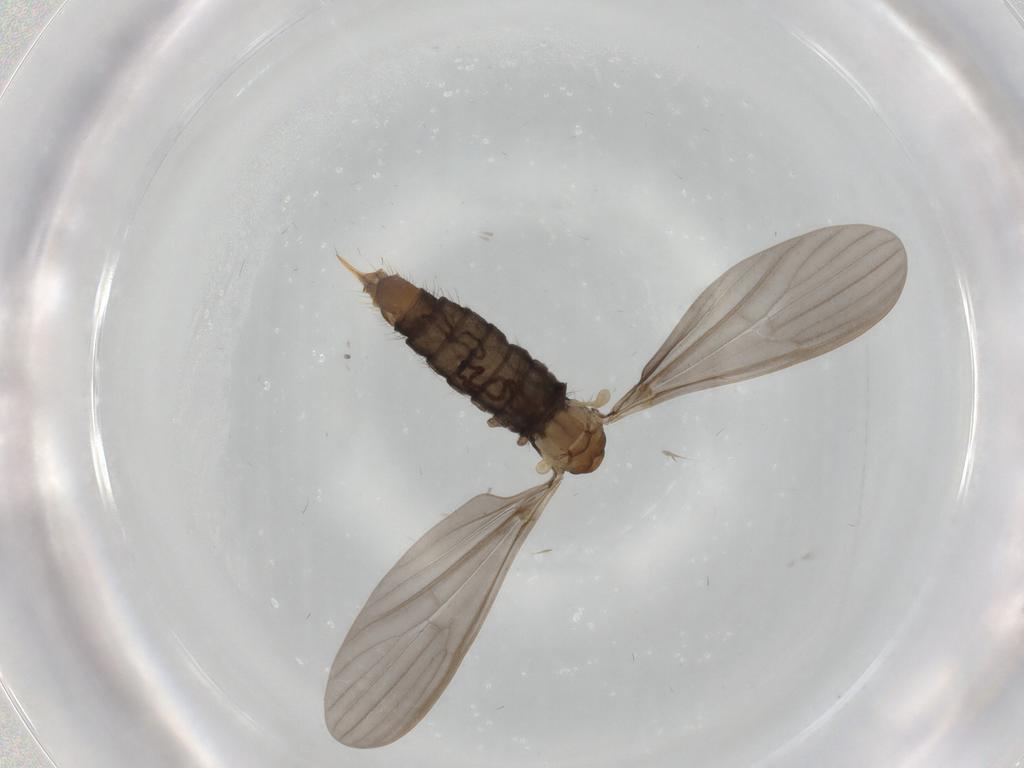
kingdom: Animalia
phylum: Arthropoda
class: Insecta
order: Diptera
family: Limoniidae
